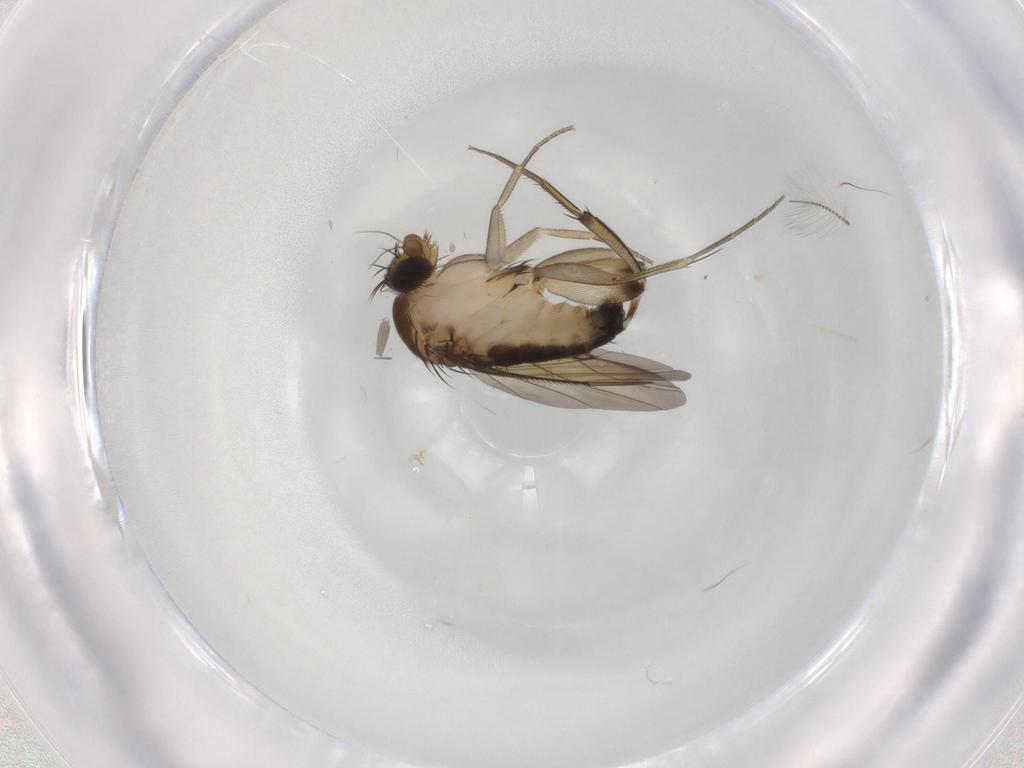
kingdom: Animalia
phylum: Arthropoda
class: Insecta
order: Diptera
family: Phoridae
